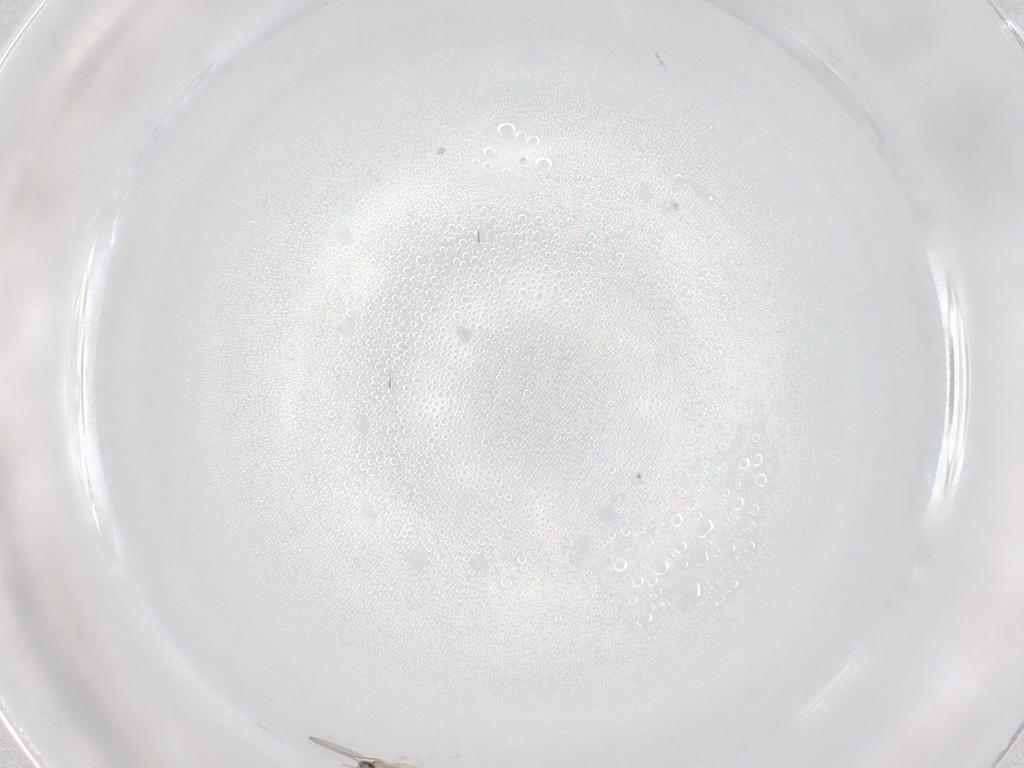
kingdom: Animalia
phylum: Arthropoda
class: Insecta
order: Diptera
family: Cecidomyiidae
